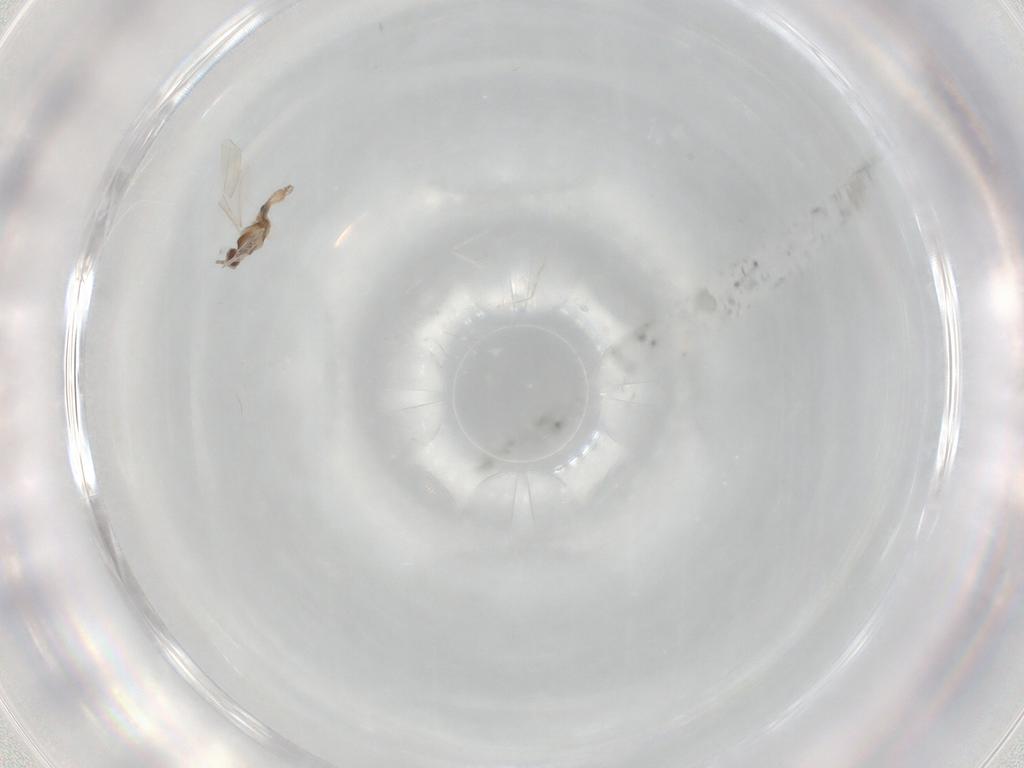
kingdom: Animalia
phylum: Arthropoda
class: Insecta
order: Diptera
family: Cecidomyiidae
